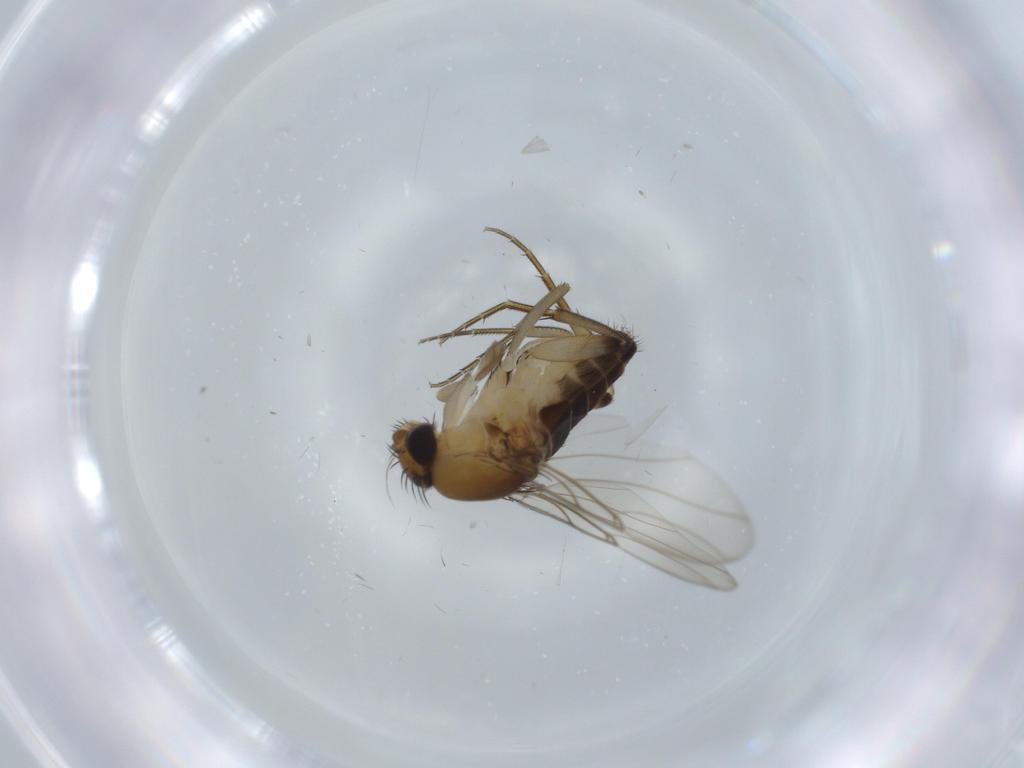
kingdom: Animalia
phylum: Arthropoda
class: Insecta
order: Diptera
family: Phoridae
